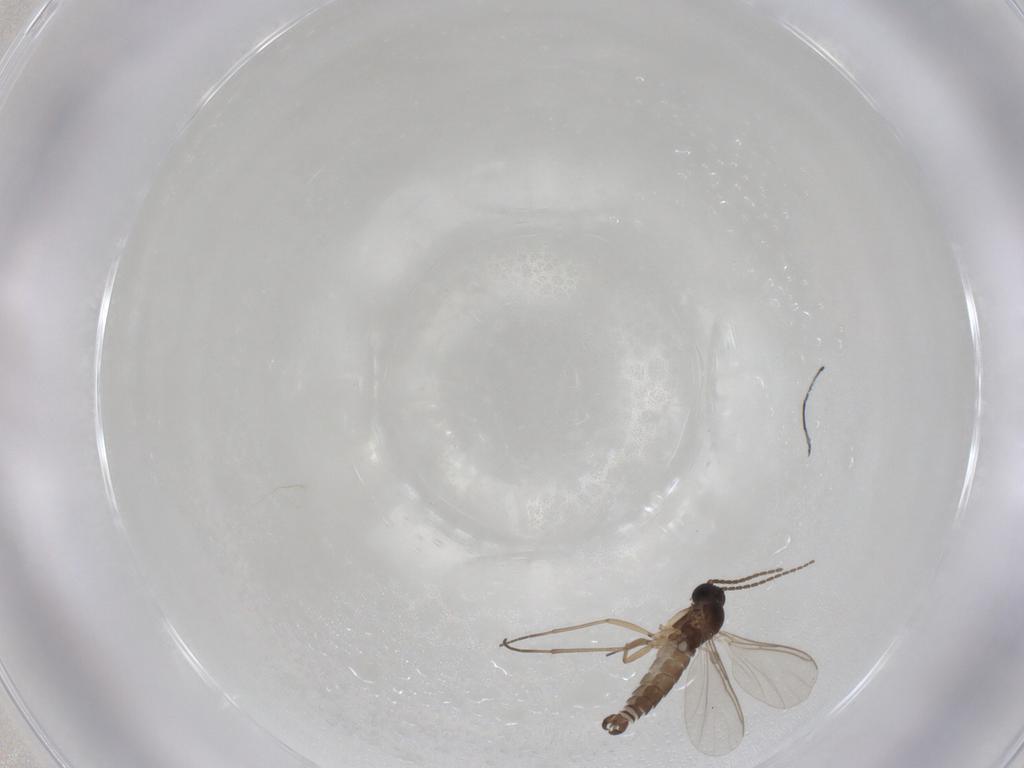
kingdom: Animalia
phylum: Arthropoda
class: Insecta
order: Diptera
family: Sciaridae
